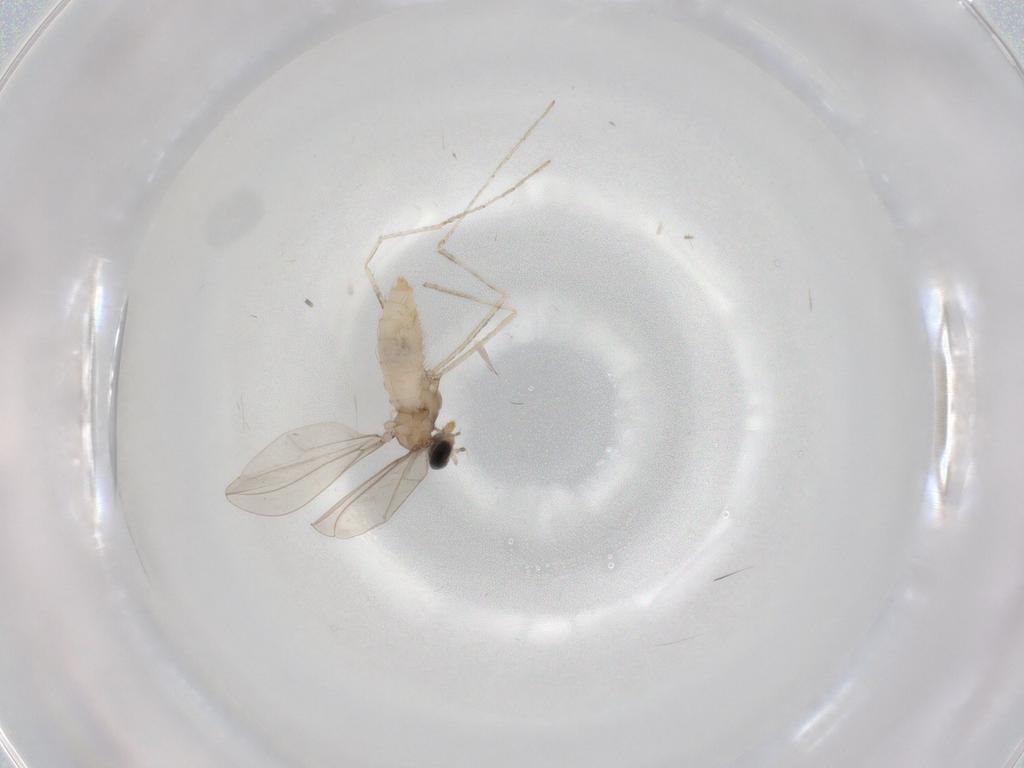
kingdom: Animalia
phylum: Arthropoda
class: Insecta
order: Diptera
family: Cecidomyiidae
